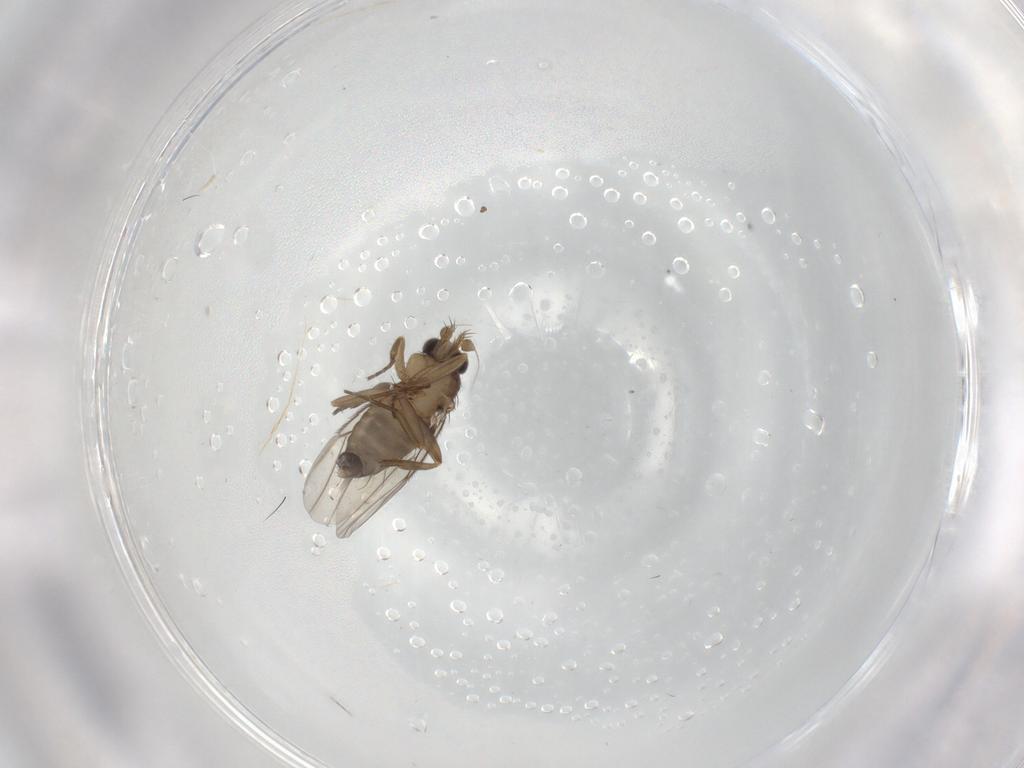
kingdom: Animalia
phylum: Arthropoda
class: Insecta
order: Diptera
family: Phoridae
